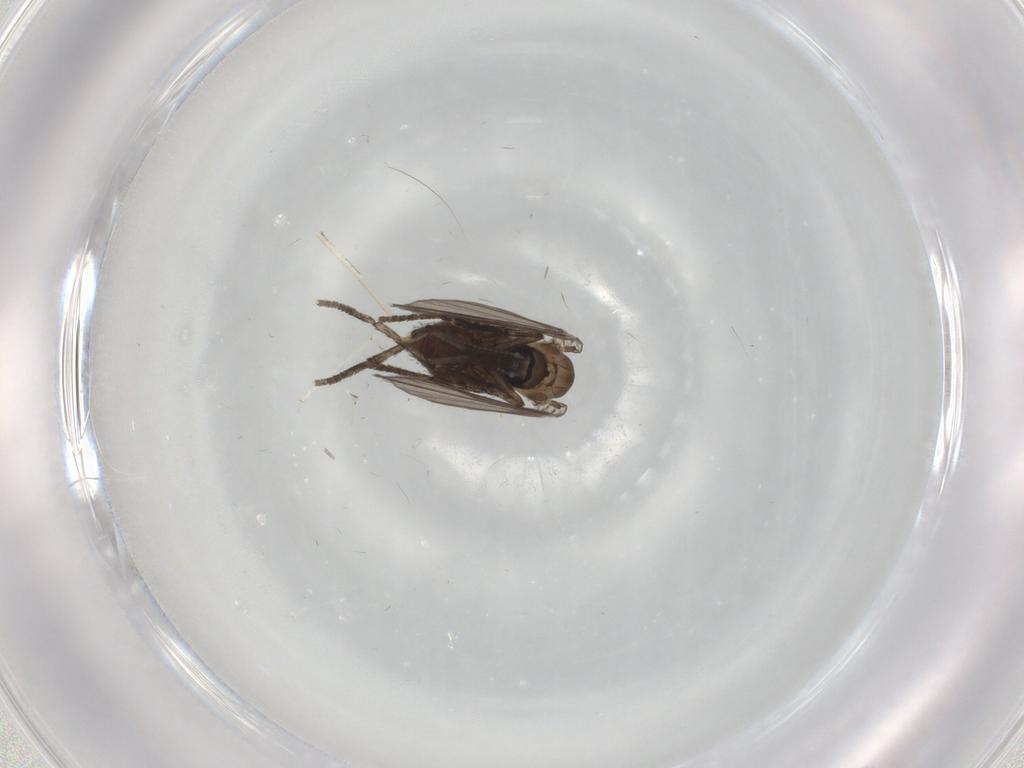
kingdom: Animalia
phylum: Arthropoda
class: Insecta
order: Diptera
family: Psychodidae
